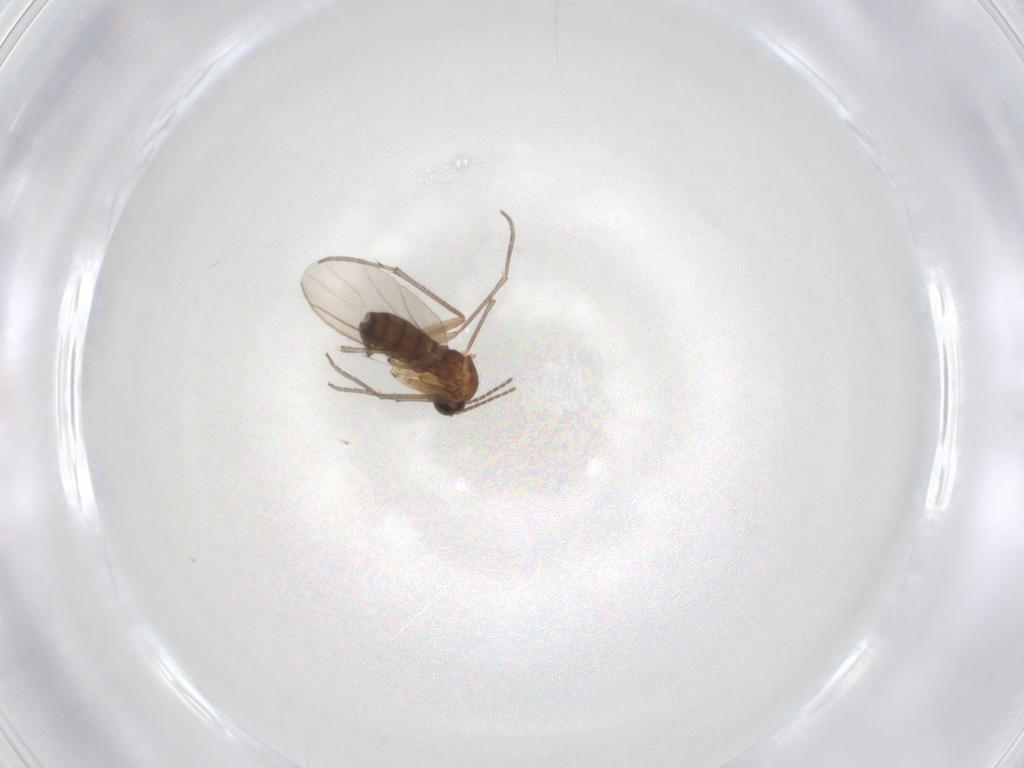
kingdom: Animalia
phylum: Arthropoda
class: Insecta
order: Diptera
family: Sciaridae
